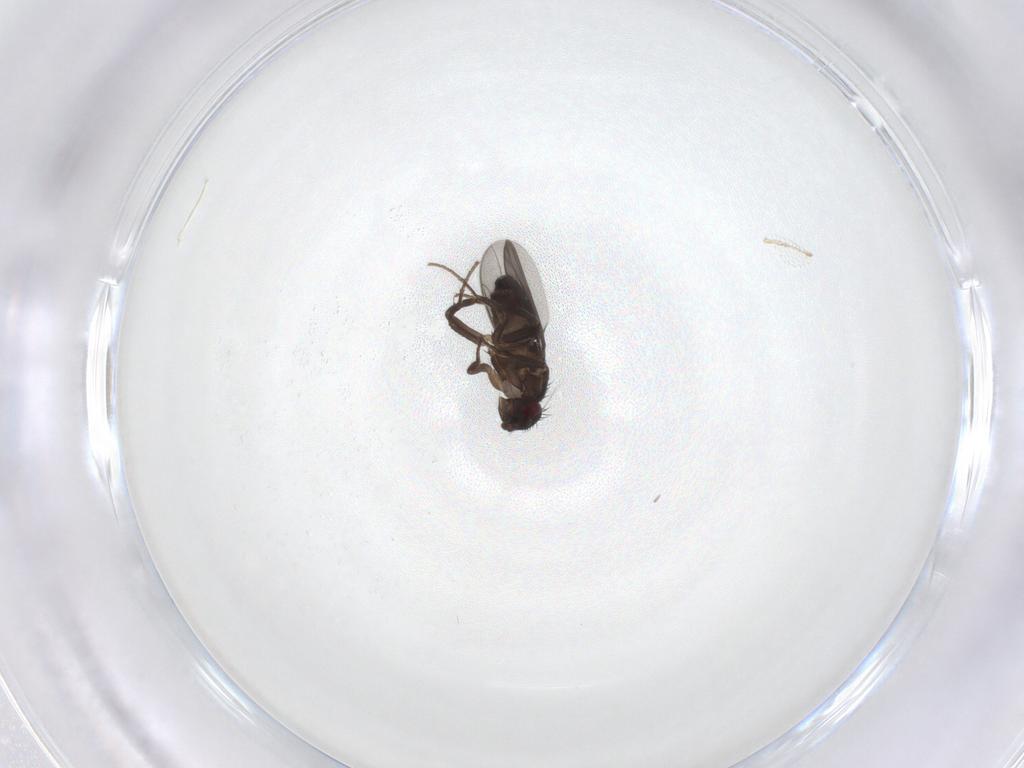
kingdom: Animalia
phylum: Arthropoda
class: Insecta
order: Diptera
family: Sphaeroceridae
